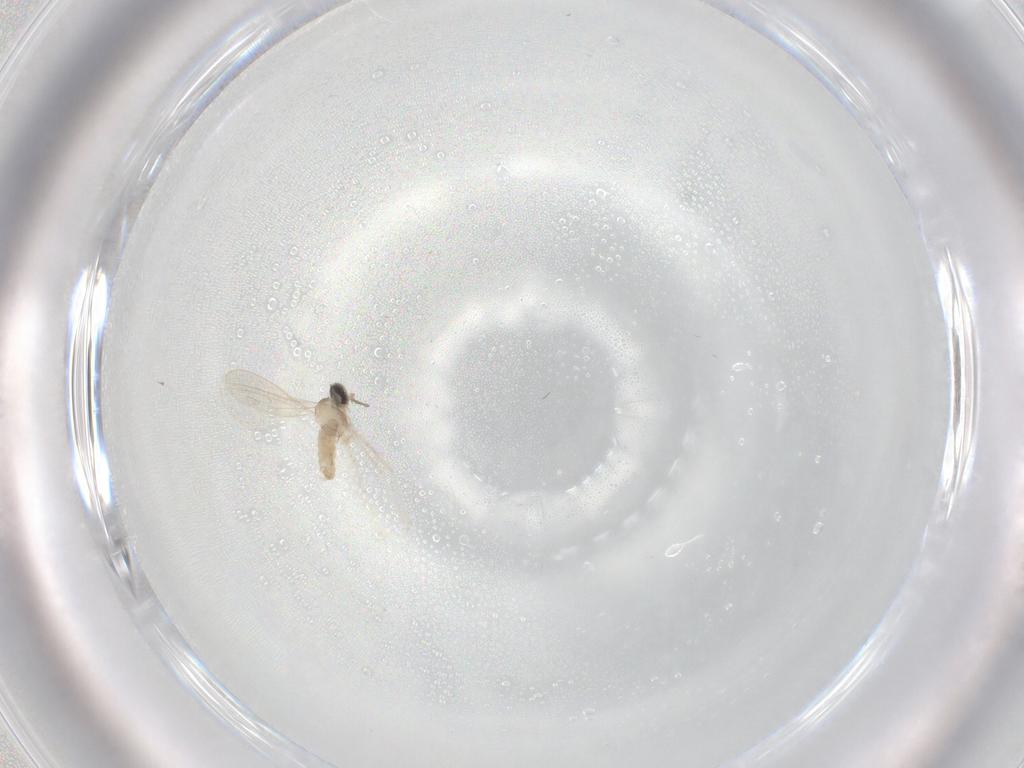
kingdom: Animalia
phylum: Arthropoda
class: Insecta
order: Diptera
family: Cecidomyiidae
